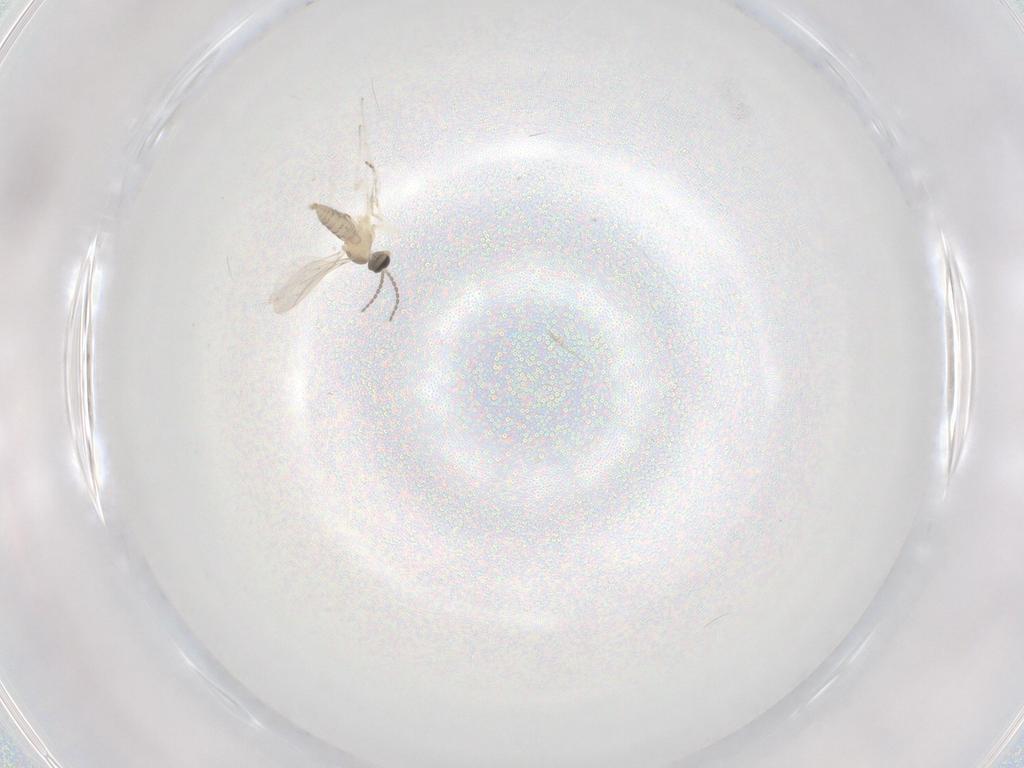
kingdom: Animalia
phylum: Arthropoda
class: Insecta
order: Diptera
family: Cecidomyiidae
